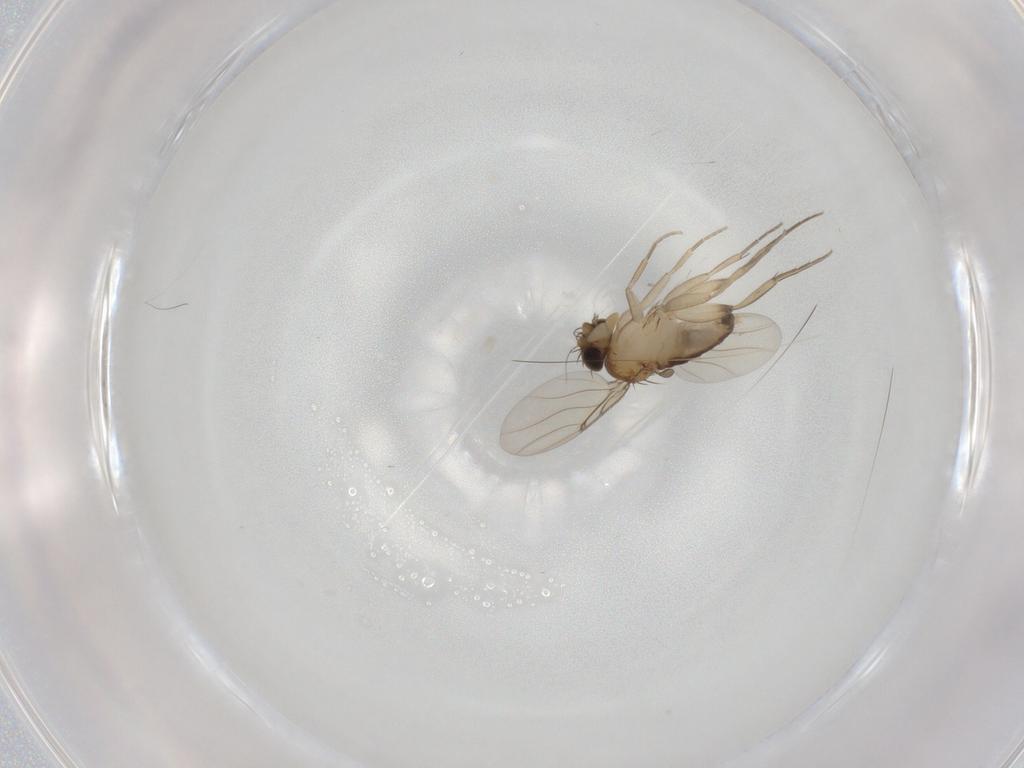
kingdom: Animalia
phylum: Arthropoda
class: Insecta
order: Diptera
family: Phoridae
